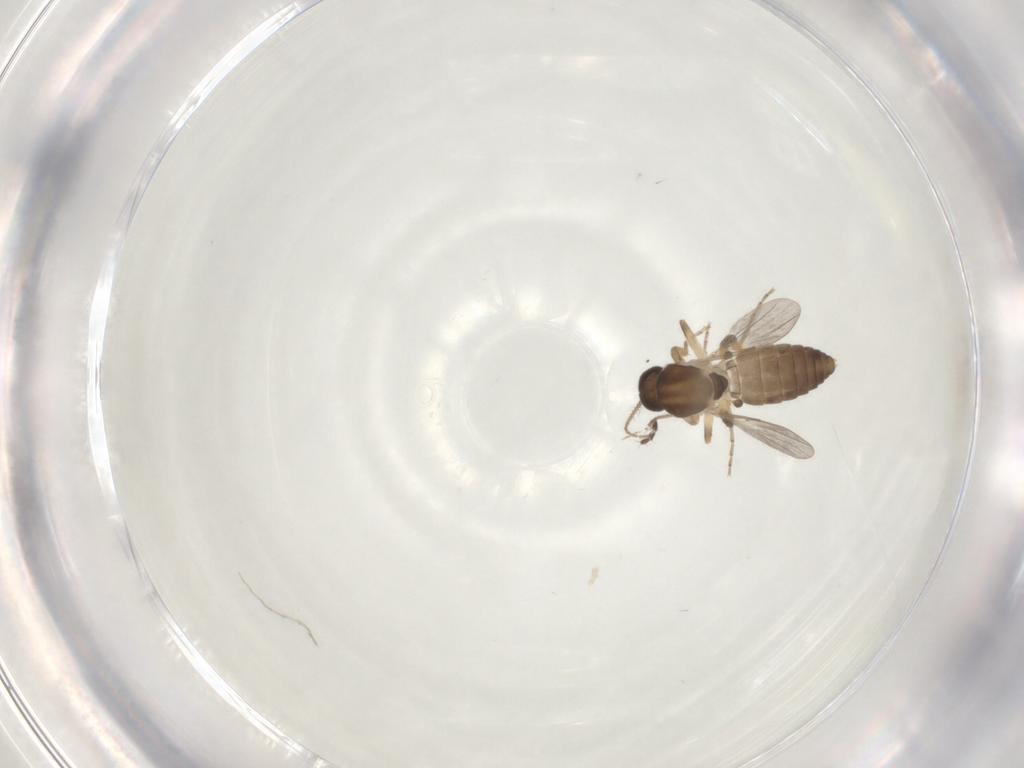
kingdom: Animalia
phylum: Arthropoda
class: Insecta
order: Diptera
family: Ceratopogonidae
